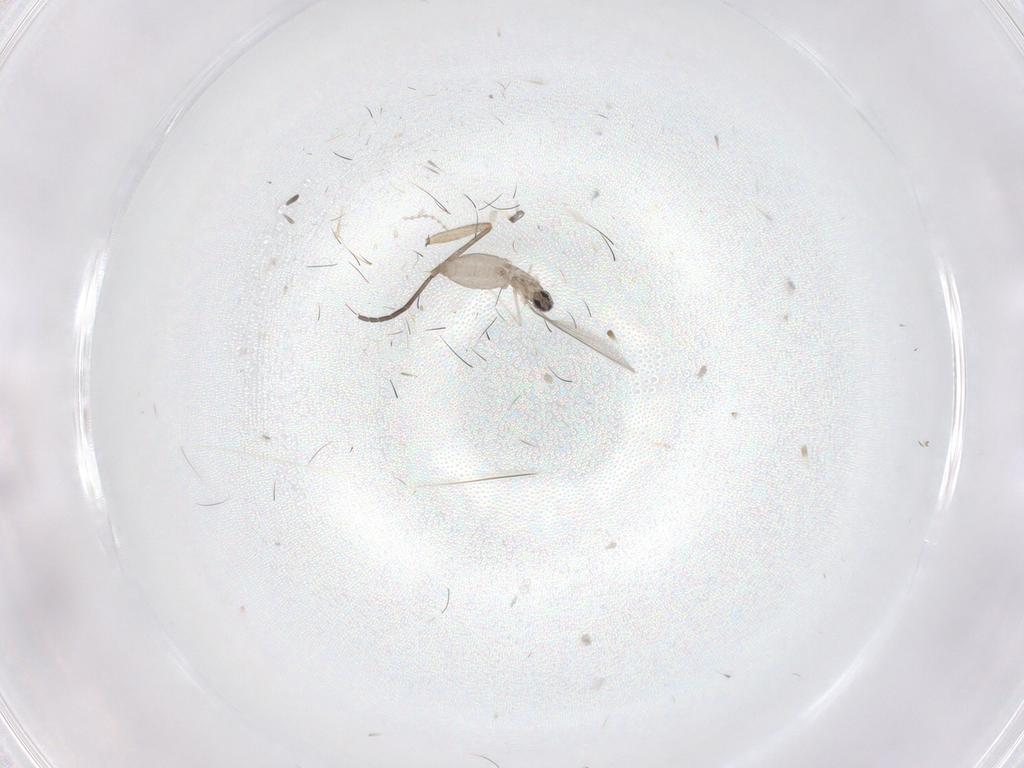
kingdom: Animalia
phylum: Arthropoda
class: Insecta
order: Diptera
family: Sciaridae
